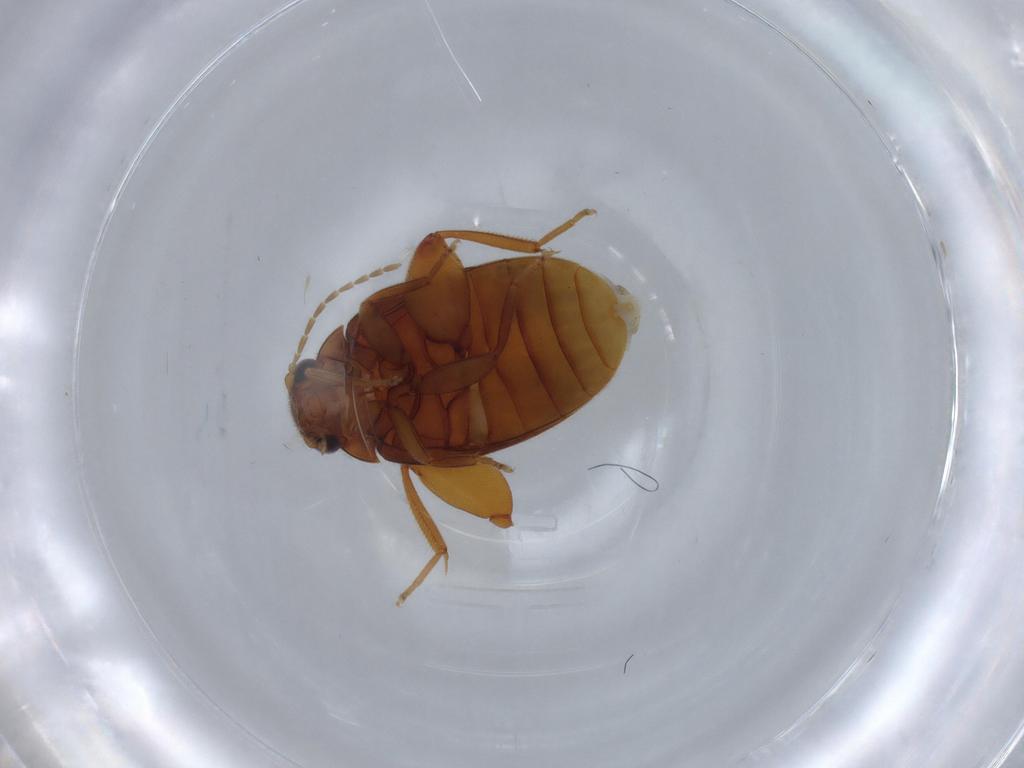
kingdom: Animalia
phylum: Arthropoda
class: Insecta
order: Coleoptera
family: Scirtidae
